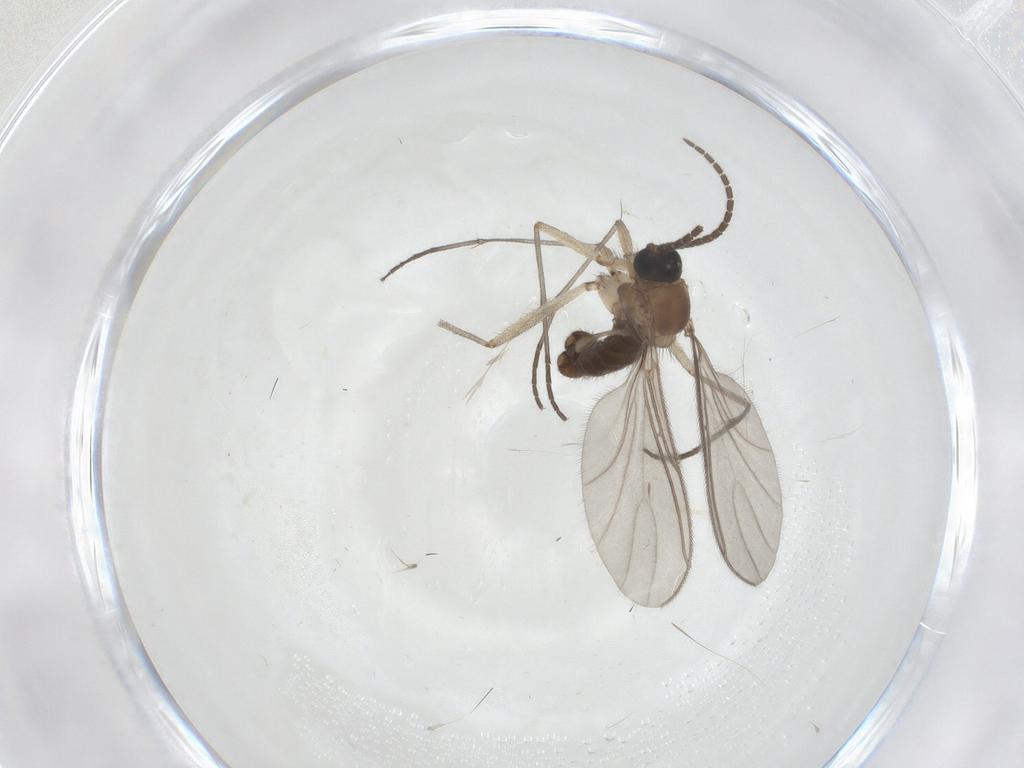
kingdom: Animalia
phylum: Arthropoda
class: Insecta
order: Diptera
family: Sciaridae
